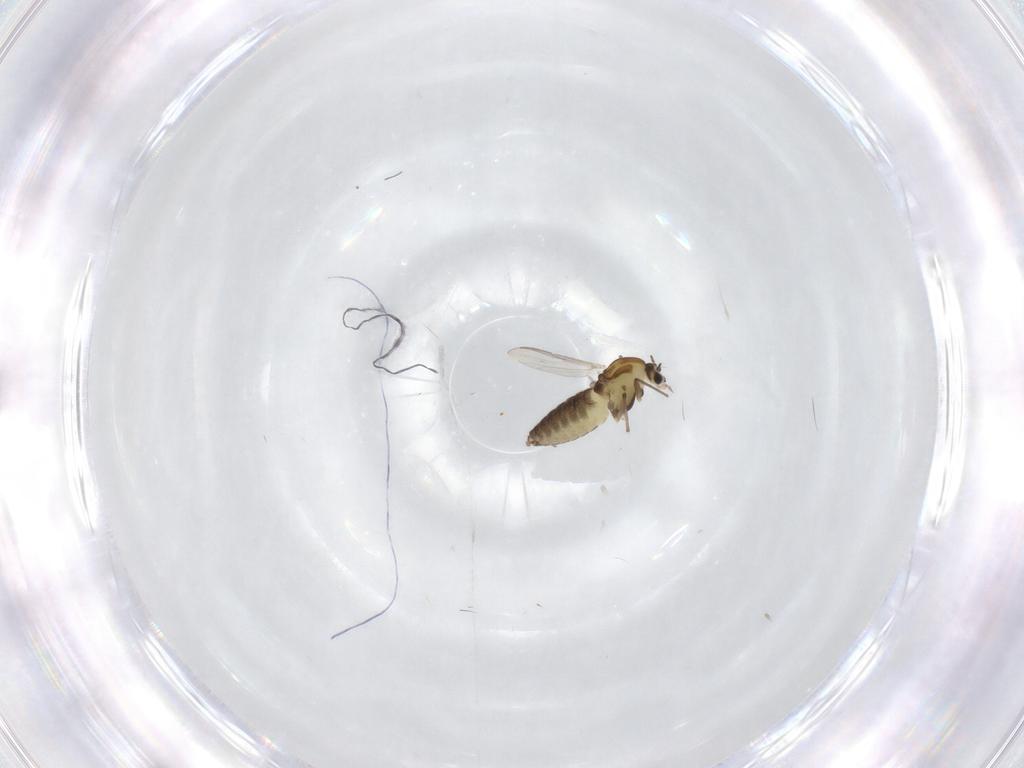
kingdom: Animalia
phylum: Arthropoda
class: Insecta
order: Diptera
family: Chironomidae
